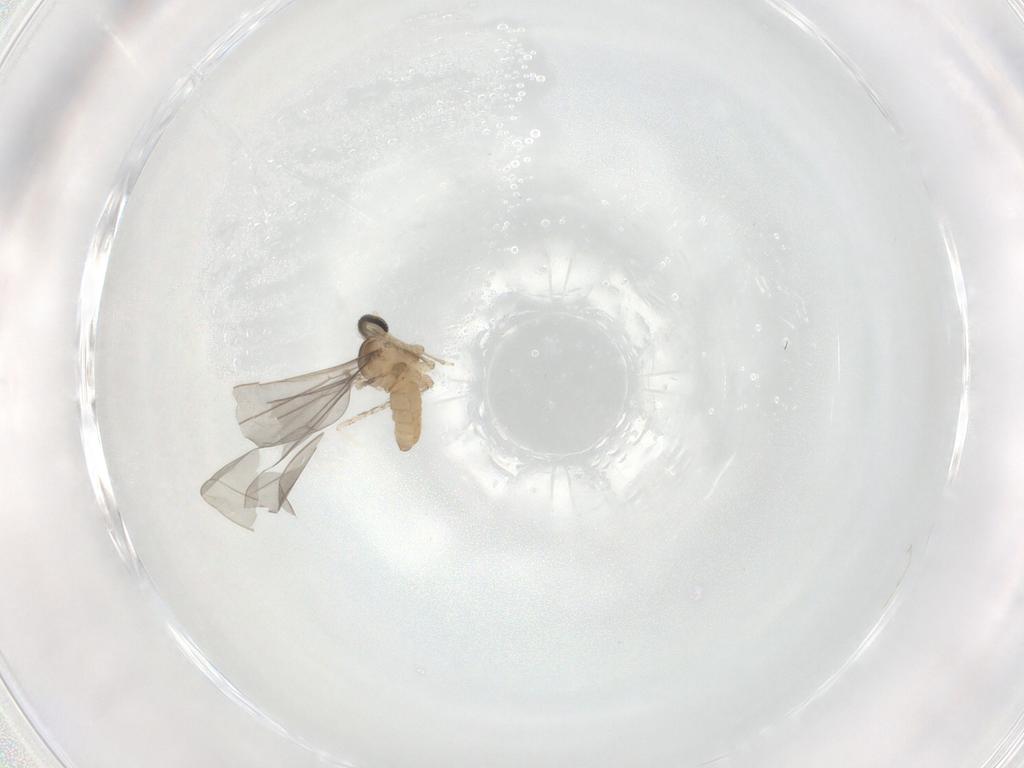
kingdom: Animalia
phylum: Arthropoda
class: Insecta
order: Diptera
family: Cecidomyiidae
